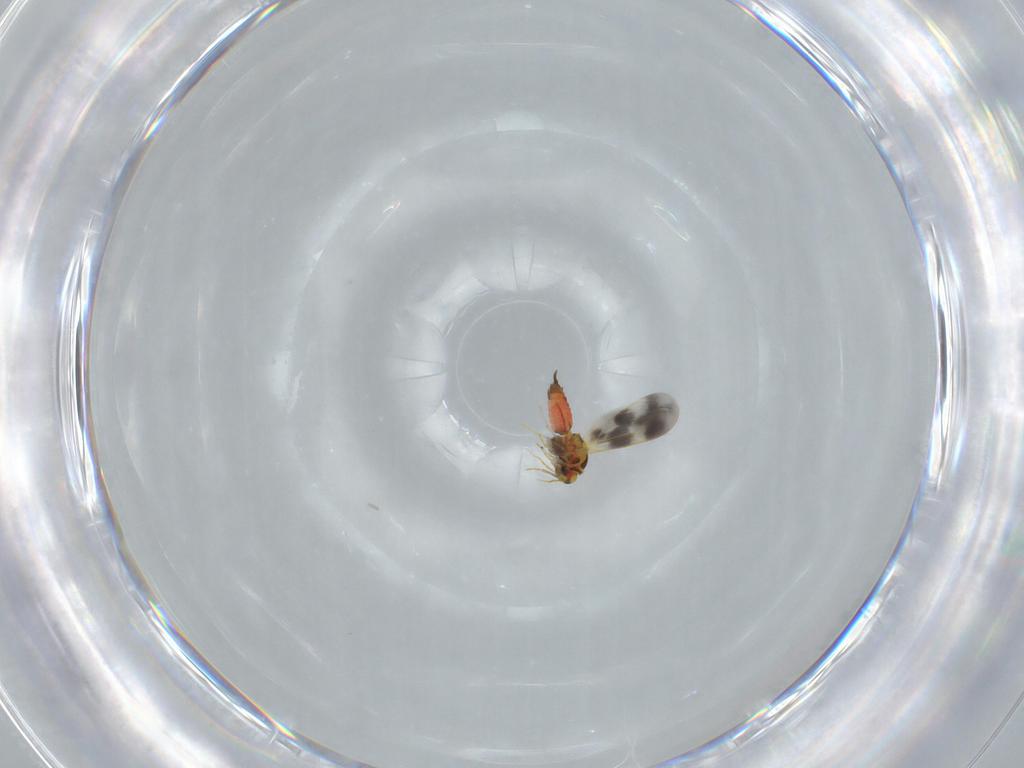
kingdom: Animalia
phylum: Arthropoda
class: Insecta
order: Hemiptera
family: Aleyrodidae
